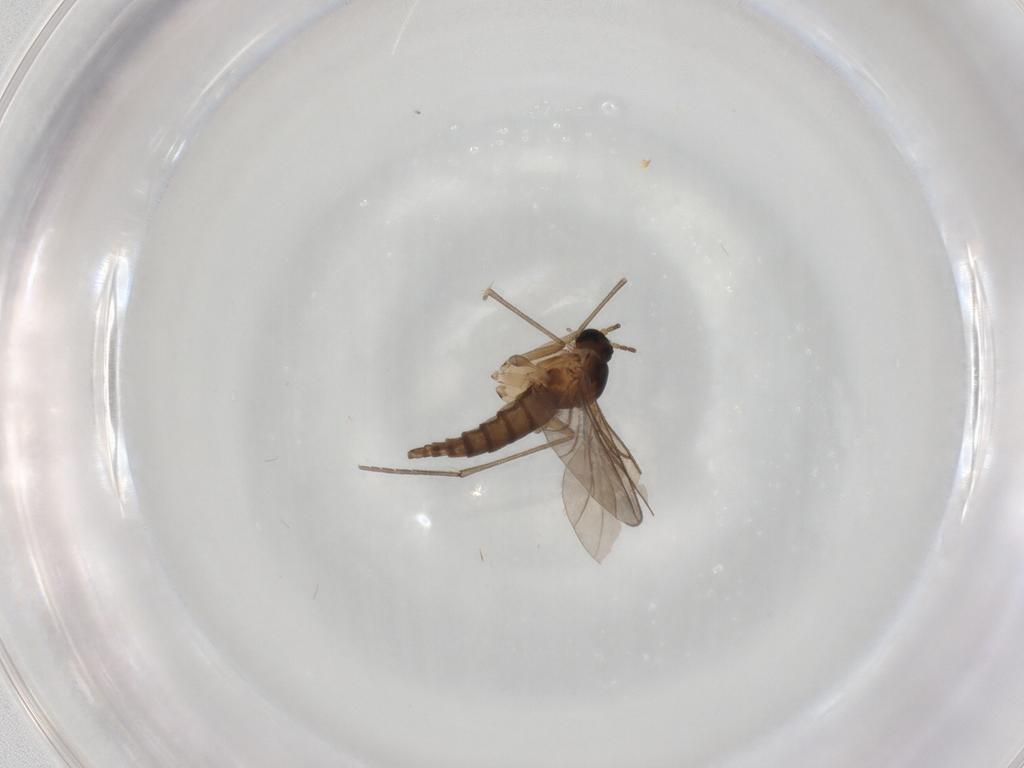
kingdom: Animalia
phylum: Arthropoda
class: Insecta
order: Diptera
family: Sciaridae
